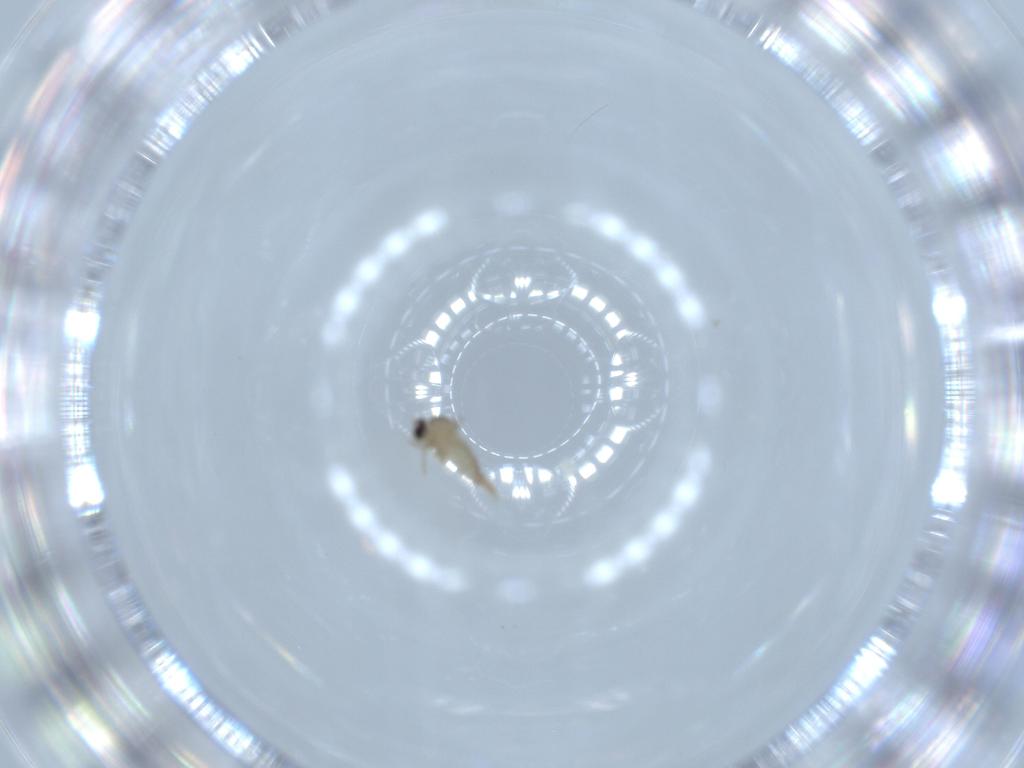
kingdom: Animalia
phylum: Arthropoda
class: Insecta
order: Diptera
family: Cecidomyiidae
